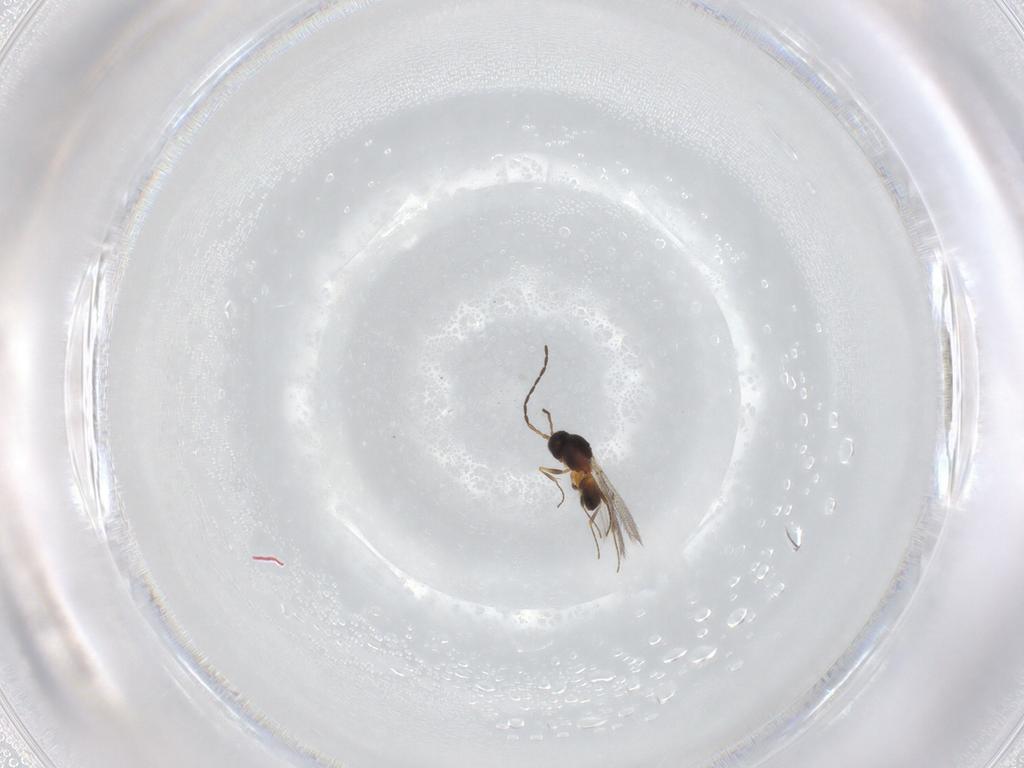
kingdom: Animalia
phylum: Arthropoda
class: Insecta
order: Hymenoptera
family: Figitidae
